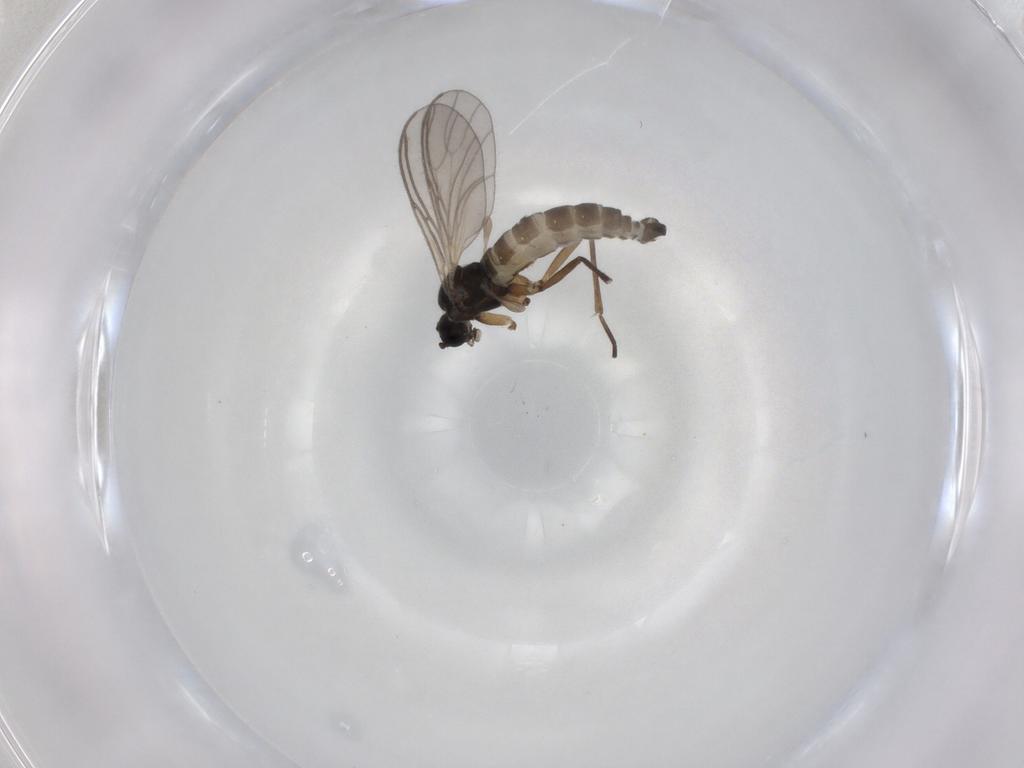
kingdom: Animalia
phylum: Arthropoda
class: Insecta
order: Diptera
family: Sciaridae
